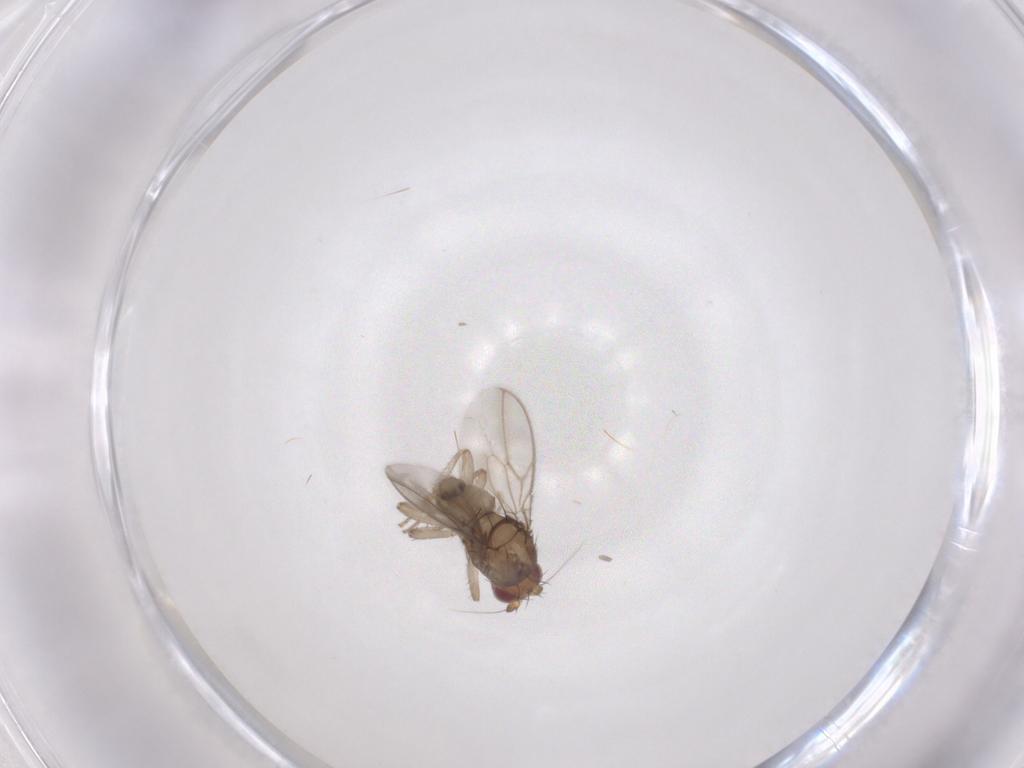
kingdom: Animalia
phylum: Arthropoda
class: Insecta
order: Diptera
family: Sphaeroceridae
